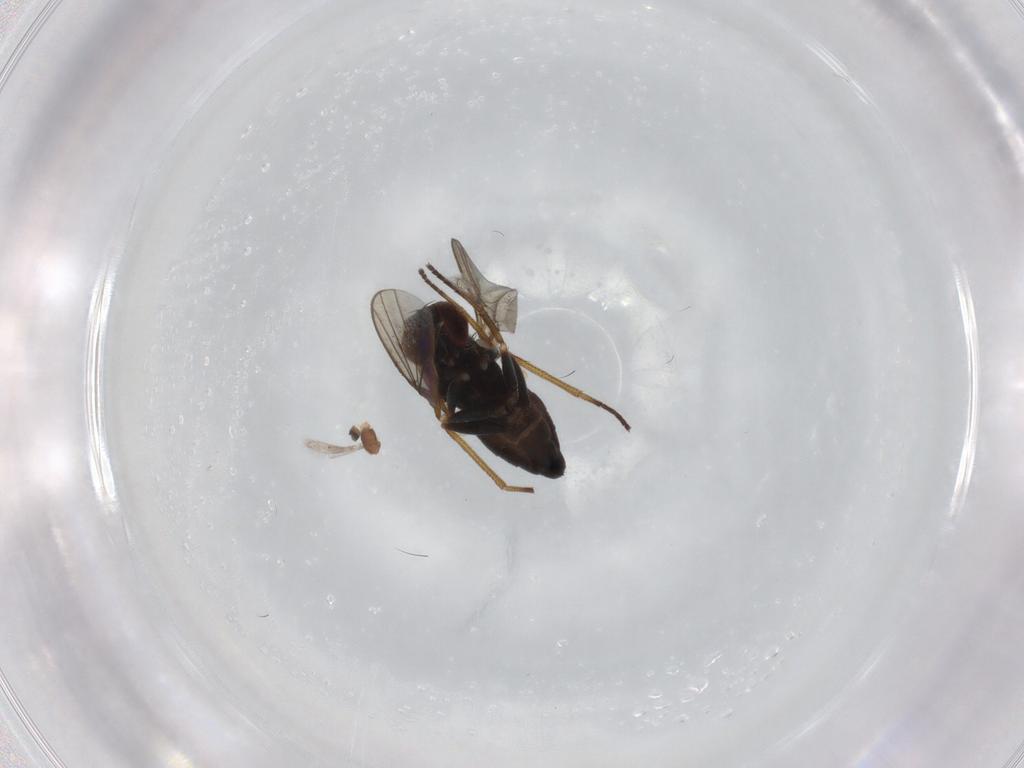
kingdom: Animalia
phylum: Arthropoda
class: Insecta
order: Diptera
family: Dolichopodidae
